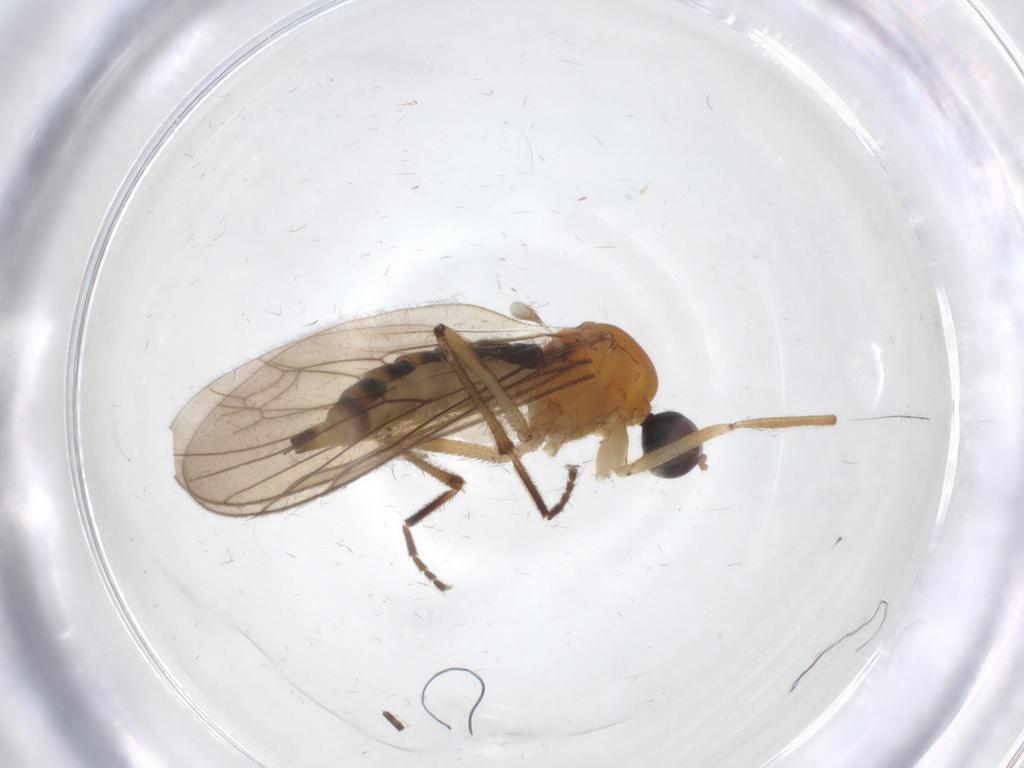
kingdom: Animalia
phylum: Arthropoda
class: Insecta
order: Diptera
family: Hybotidae
